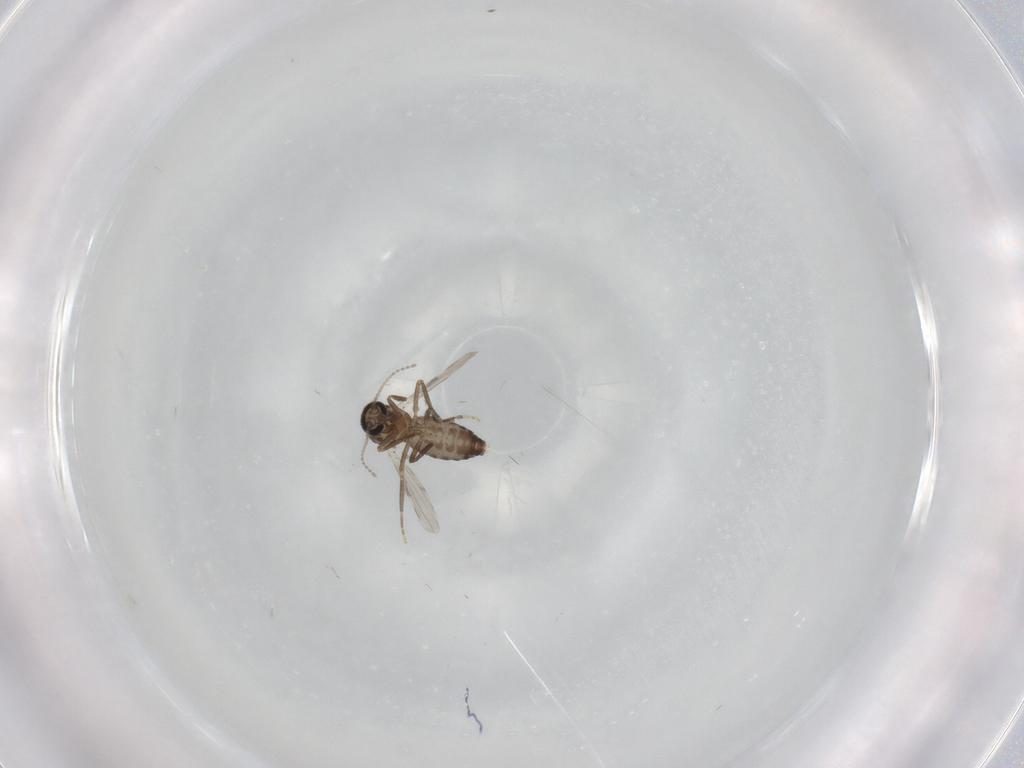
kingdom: Animalia
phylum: Arthropoda
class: Insecta
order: Diptera
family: Ceratopogonidae
